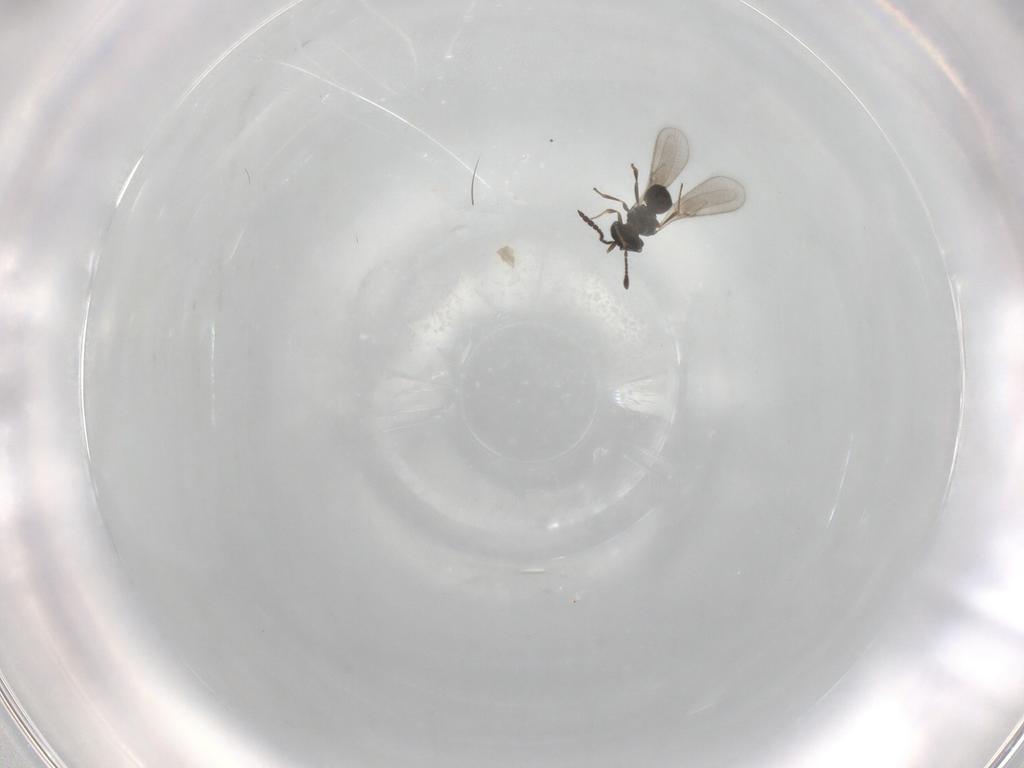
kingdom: Animalia
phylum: Arthropoda
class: Insecta
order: Hymenoptera
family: Scelionidae
